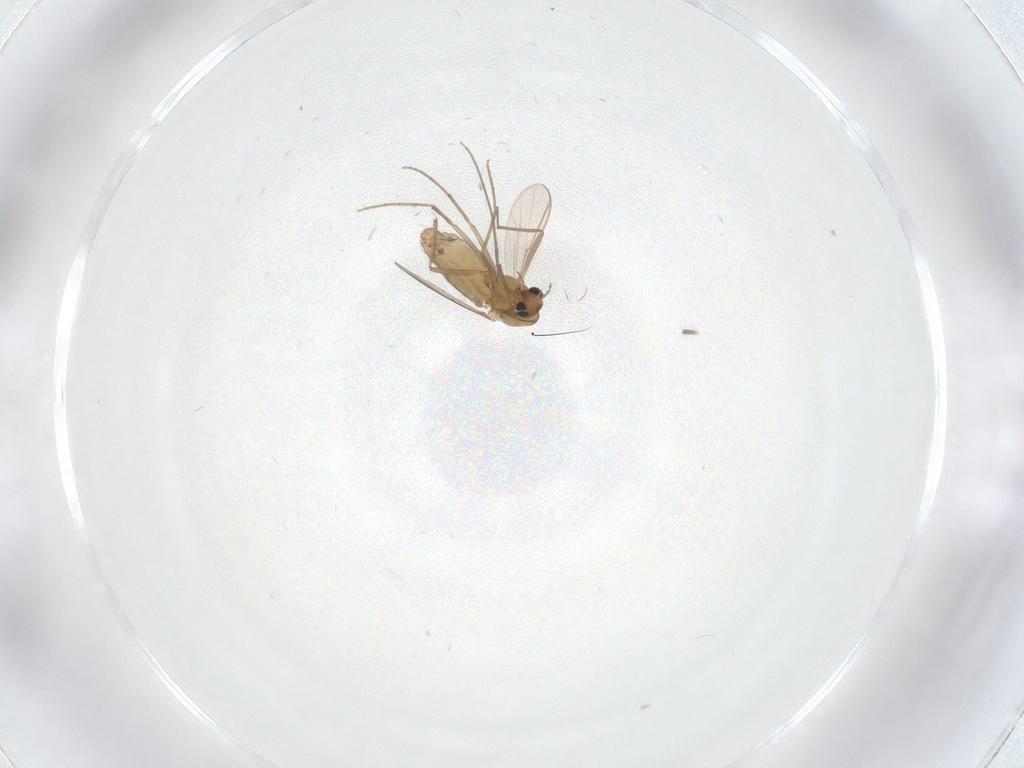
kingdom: Animalia
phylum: Arthropoda
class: Insecta
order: Diptera
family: Chironomidae
